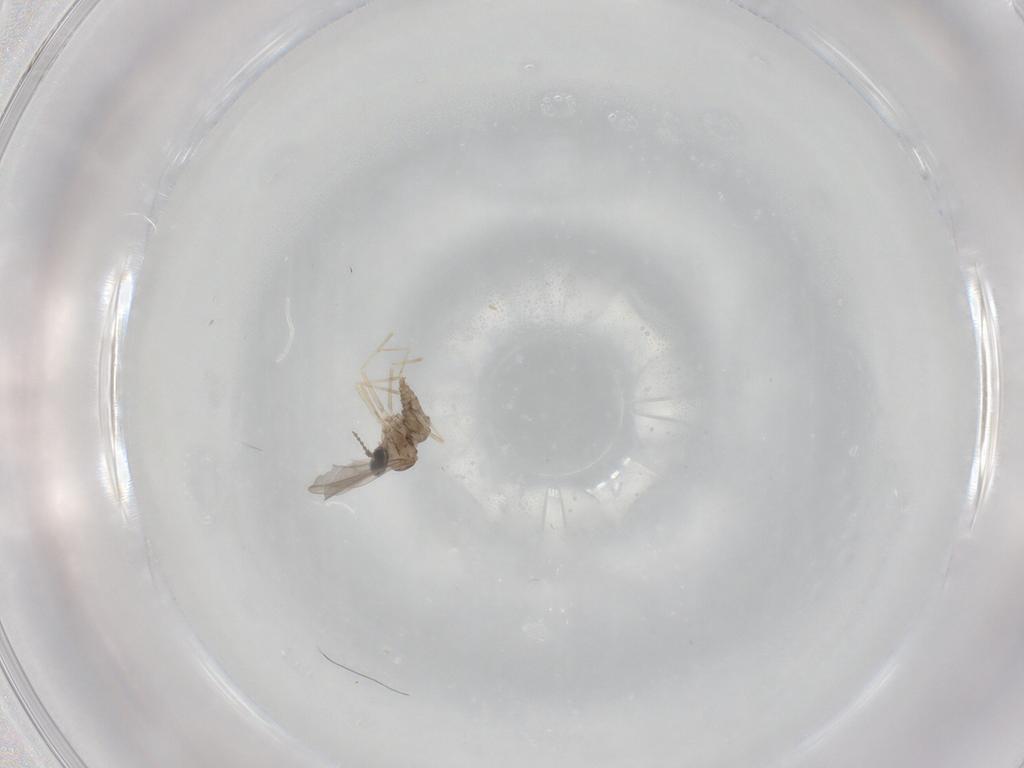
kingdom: Animalia
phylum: Arthropoda
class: Insecta
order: Diptera
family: Cecidomyiidae
